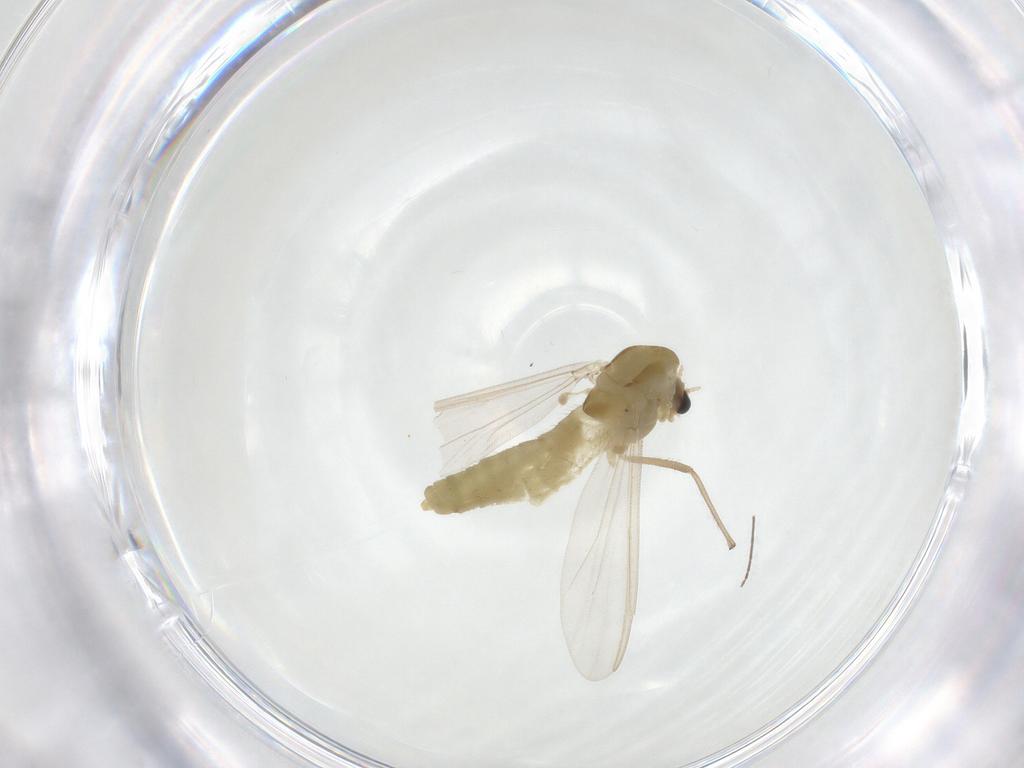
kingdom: Animalia
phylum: Arthropoda
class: Insecta
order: Diptera
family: Chironomidae
